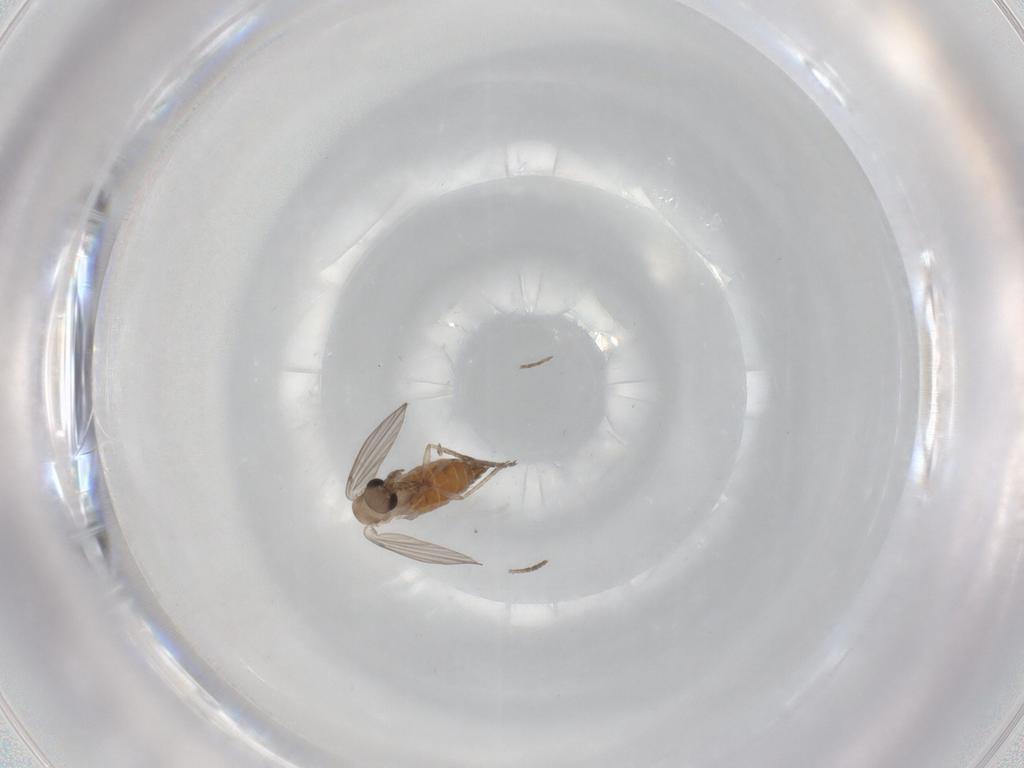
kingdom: Animalia
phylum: Arthropoda
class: Insecta
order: Diptera
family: Psychodidae
